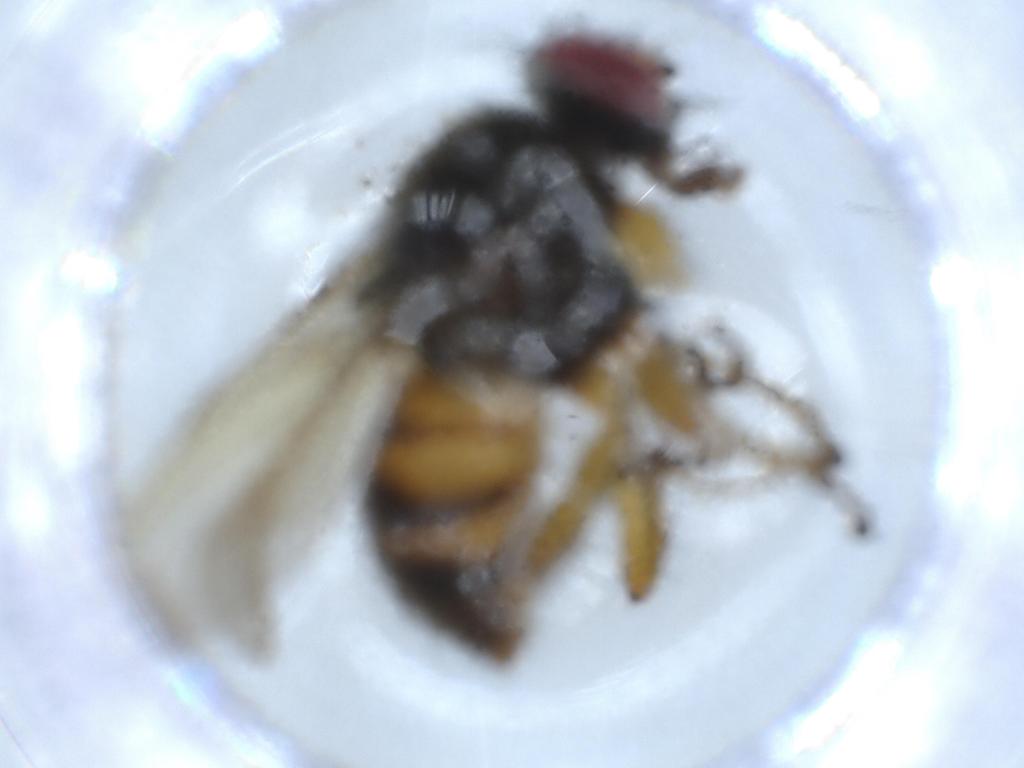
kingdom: Animalia
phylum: Arthropoda
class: Insecta
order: Diptera
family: Muscidae
